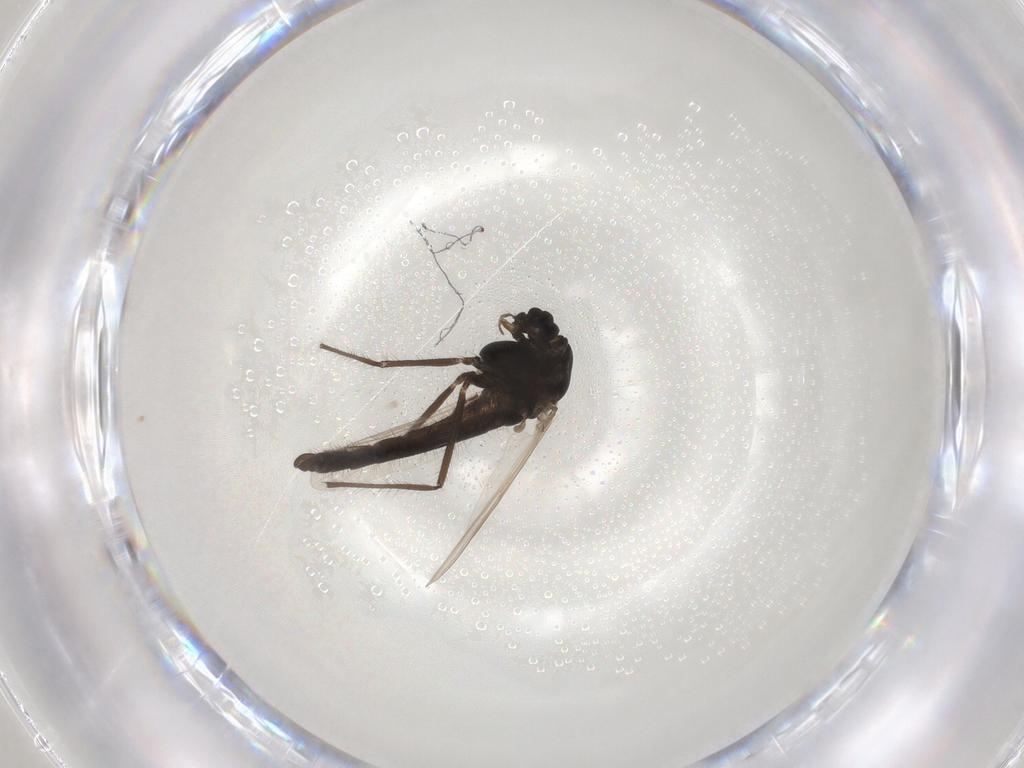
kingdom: Animalia
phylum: Arthropoda
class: Insecta
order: Diptera
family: Chironomidae
